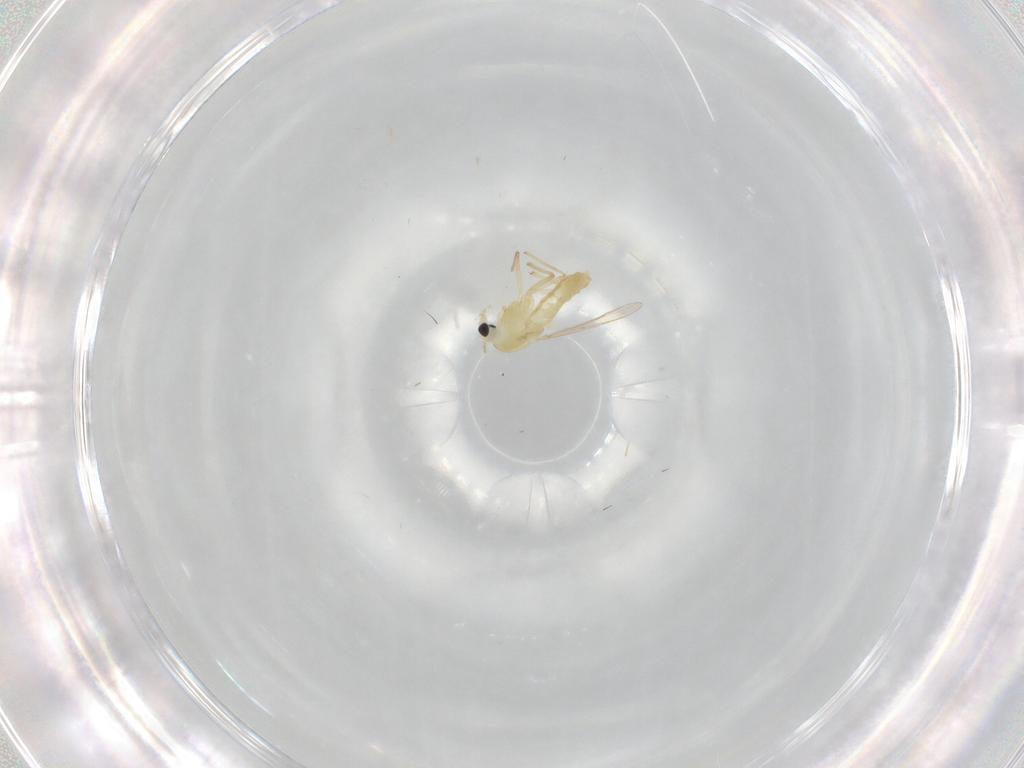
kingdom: Animalia
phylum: Arthropoda
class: Insecta
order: Diptera
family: Chironomidae
